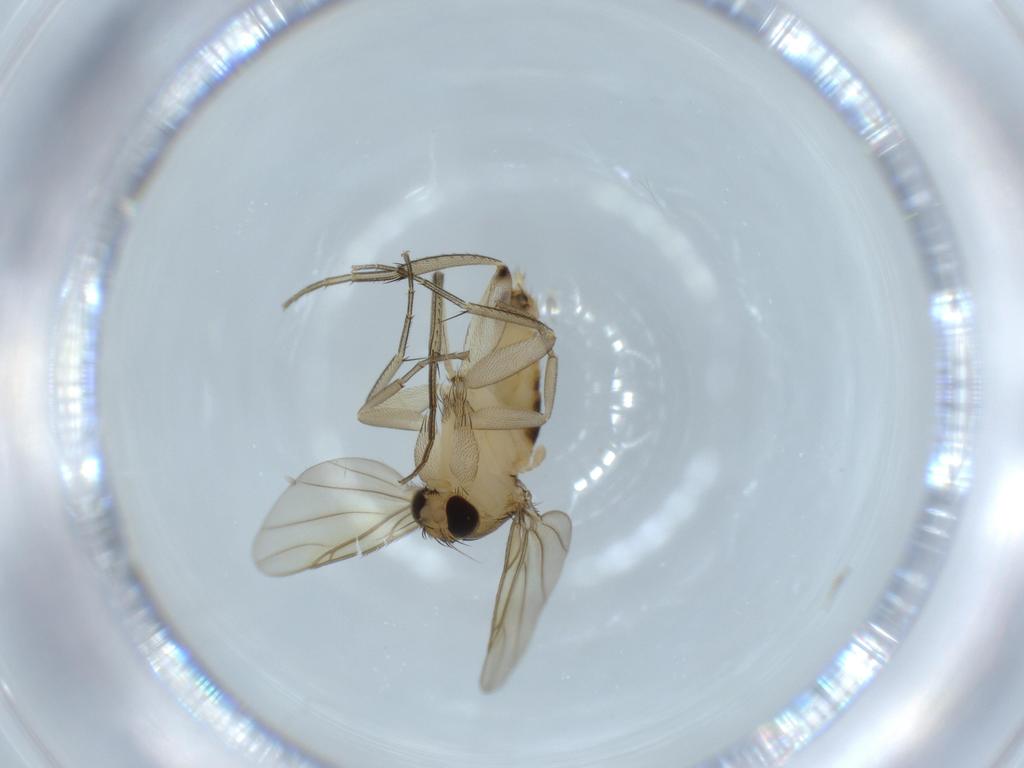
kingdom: Animalia
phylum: Arthropoda
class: Insecta
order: Diptera
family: Phoridae
